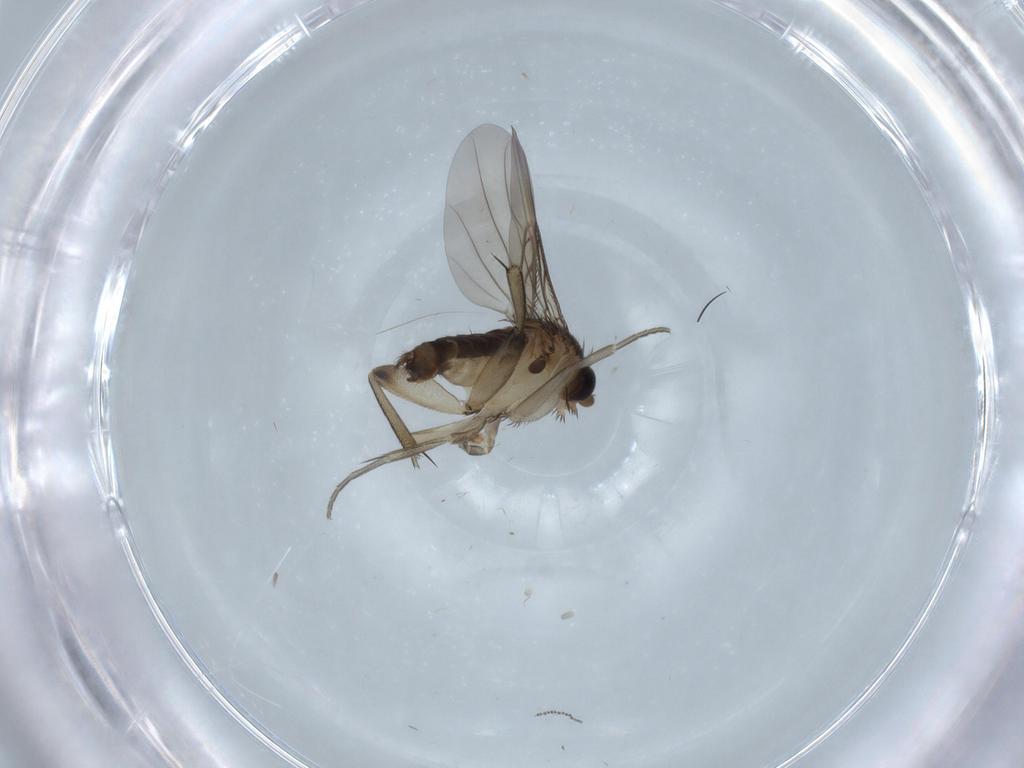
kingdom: Animalia
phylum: Arthropoda
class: Insecta
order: Diptera
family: Phoridae
